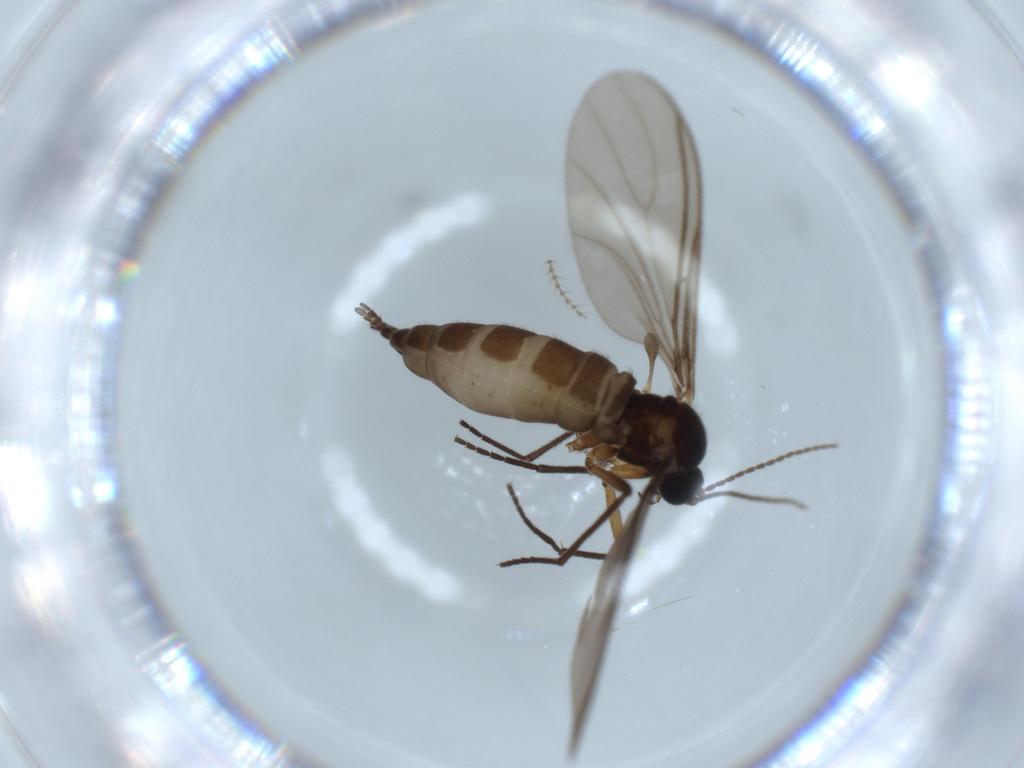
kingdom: Animalia
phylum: Arthropoda
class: Insecta
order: Diptera
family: Sciaridae
